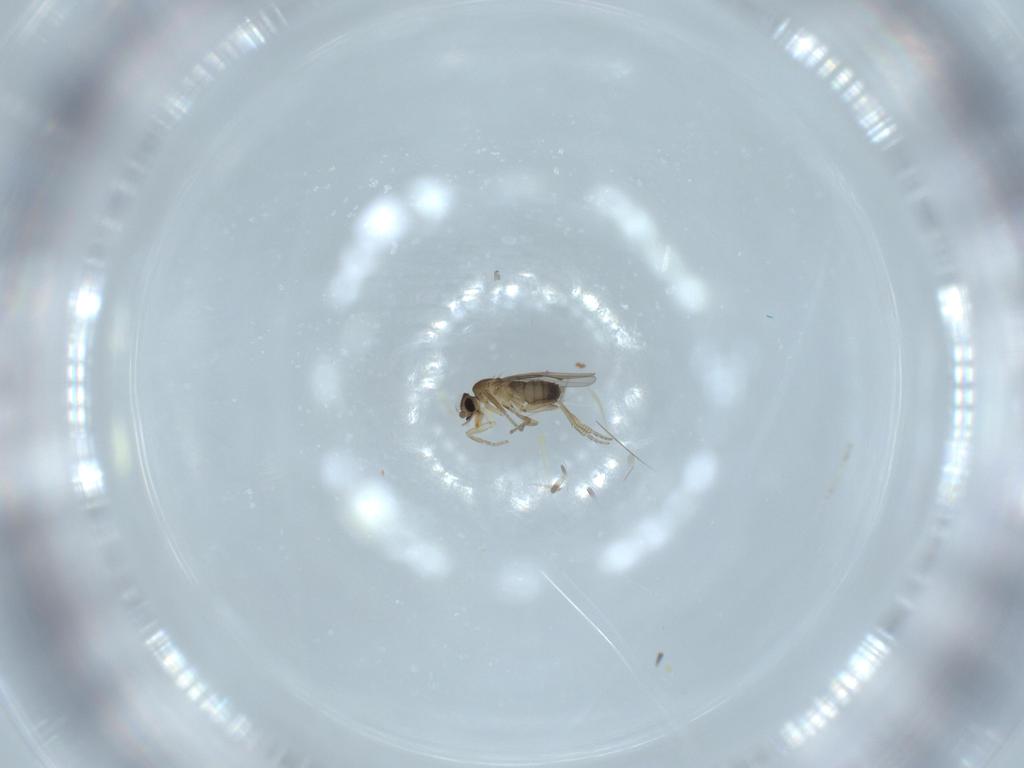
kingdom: Animalia
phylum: Arthropoda
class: Insecta
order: Diptera
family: Phoridae
